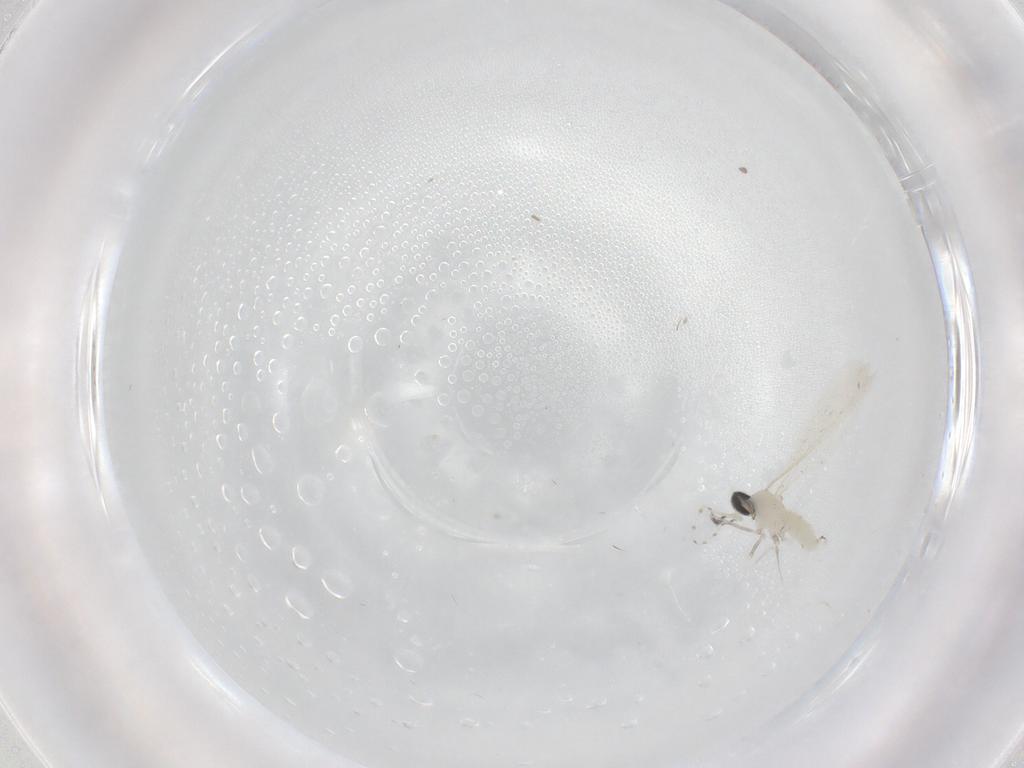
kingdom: Animalia
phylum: Arthropoda
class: Insecta
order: Diptera
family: Cecidomyiidae
